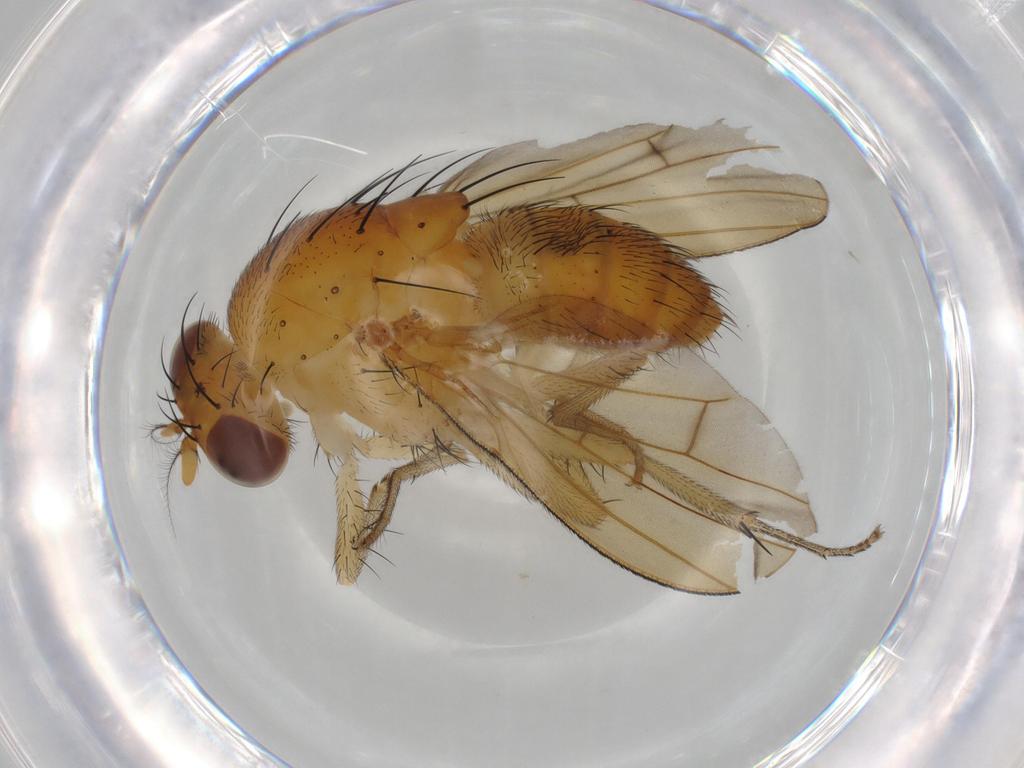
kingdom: Animalia
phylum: Arthropoda
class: Insecta
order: Diptera
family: Lauxaniidae
